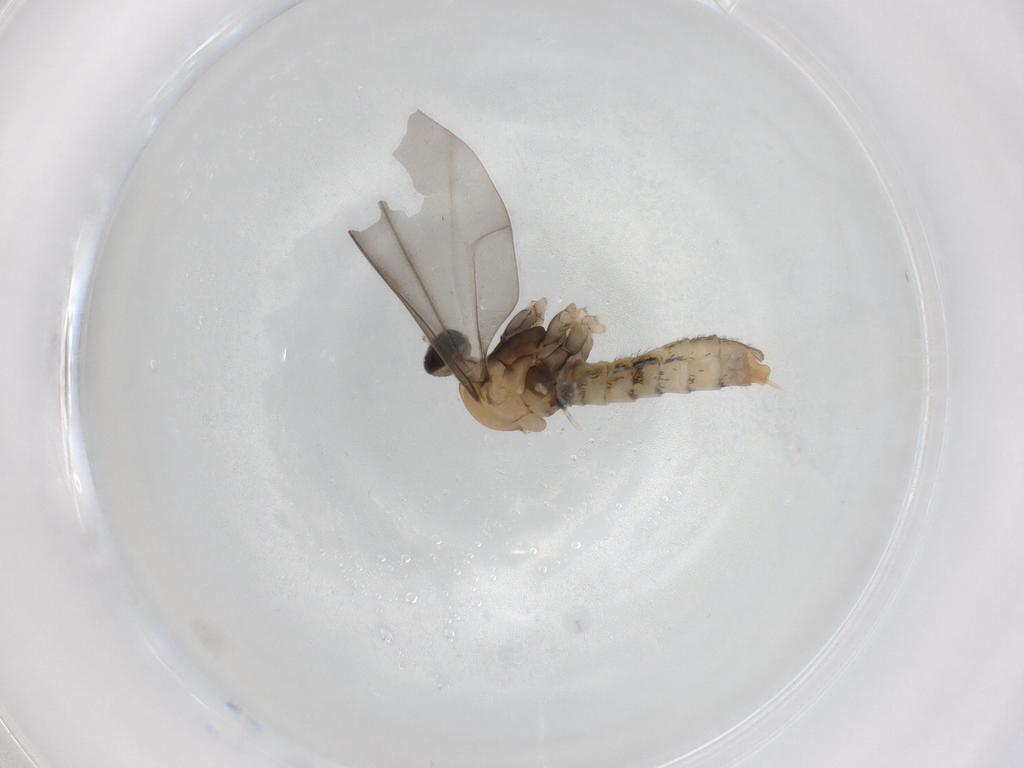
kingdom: Animalia
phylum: Arthropoda
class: Insecta
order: Diptera
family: Cecidomyiidae
